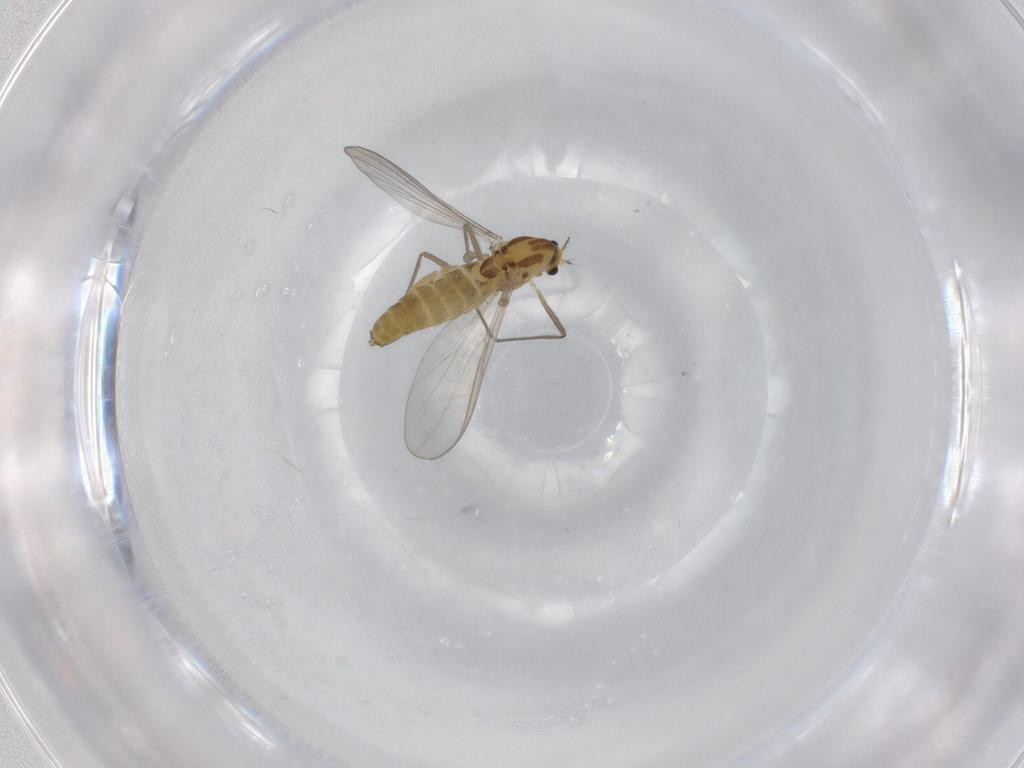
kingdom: Animalia
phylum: Arthropoda
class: Insecta
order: Diptera
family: Chironomidae
